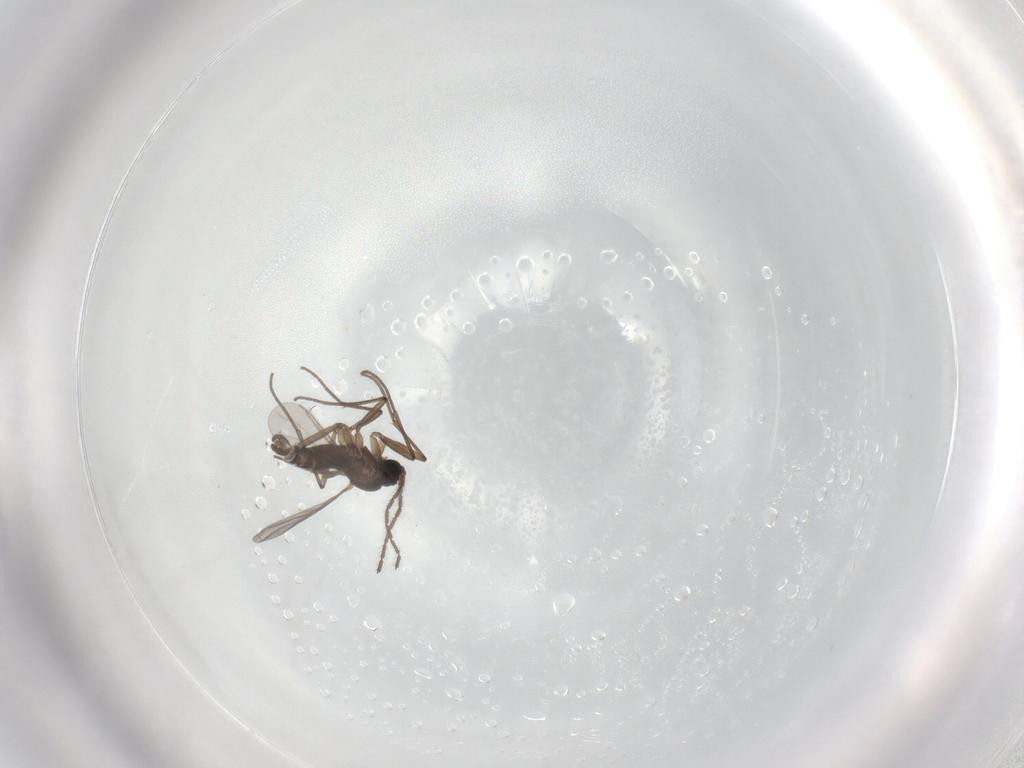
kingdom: Animalia
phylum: Arthropoda
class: Insecta
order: Diptera
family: Sciaridae
